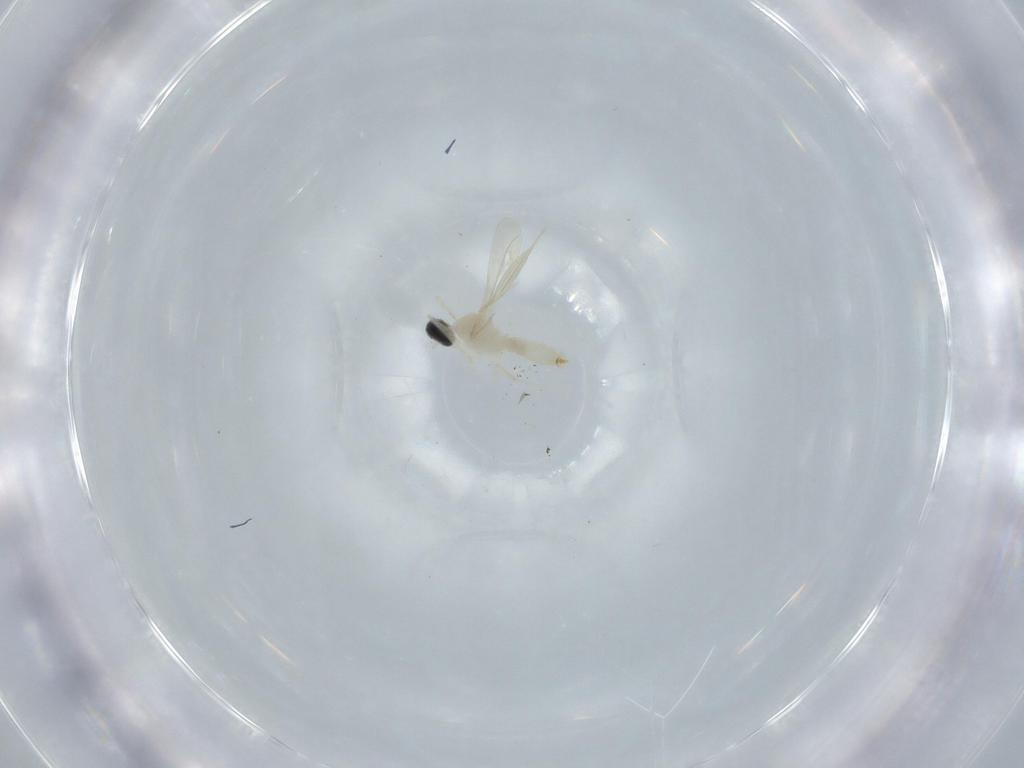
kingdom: Animalia
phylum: Arthropoda
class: Insecta
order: Diptera
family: Cecidomyiidae
